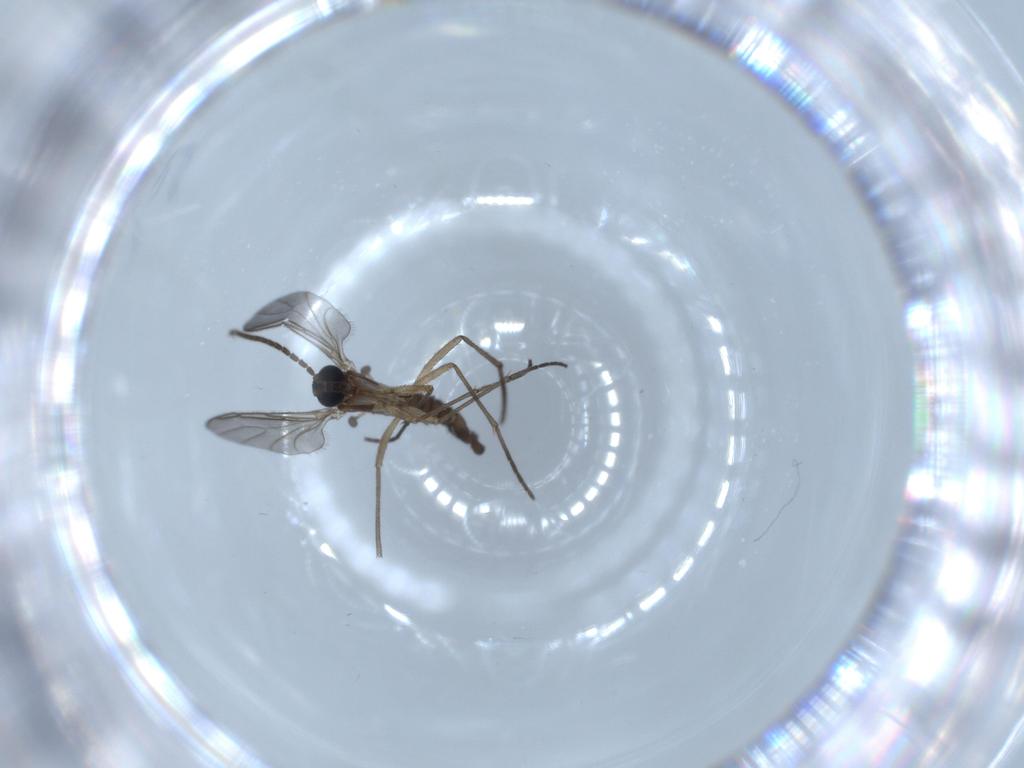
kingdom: Animalia
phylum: Arthropoda
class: Insecta
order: Diptera
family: Sciaridae
